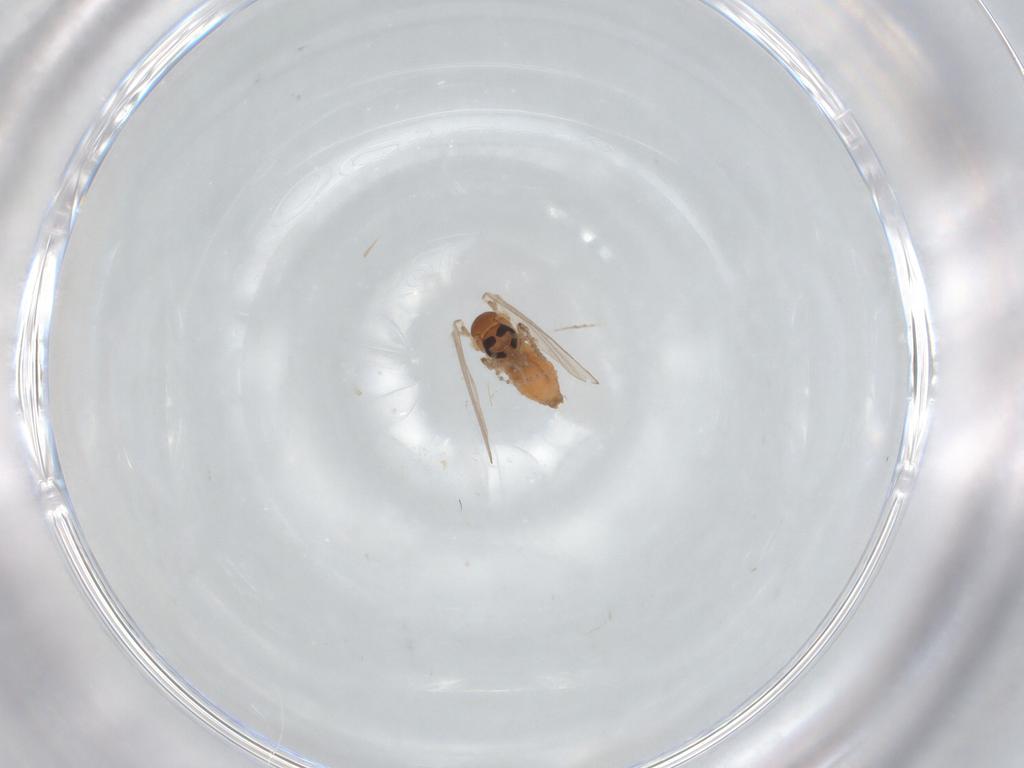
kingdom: Animalia
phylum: Arthropoda
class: Insecta
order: Diptera
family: Psychodidae
